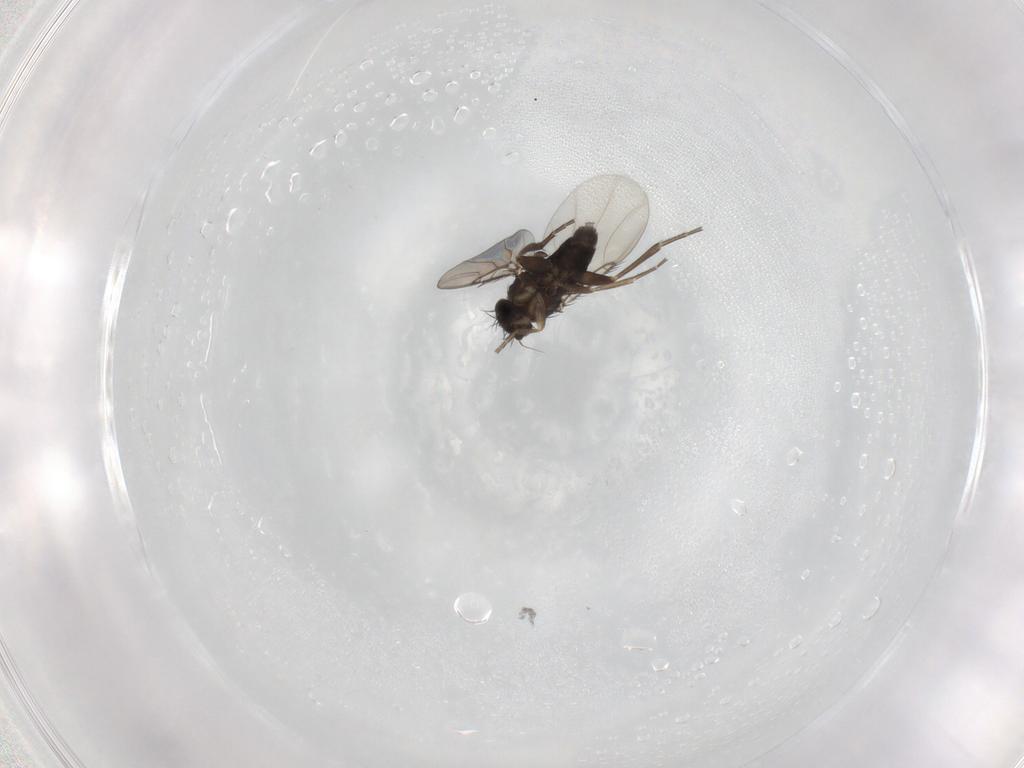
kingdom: Animalia
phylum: Arthropoda
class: Insecta
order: Diptera
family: Phoridae
